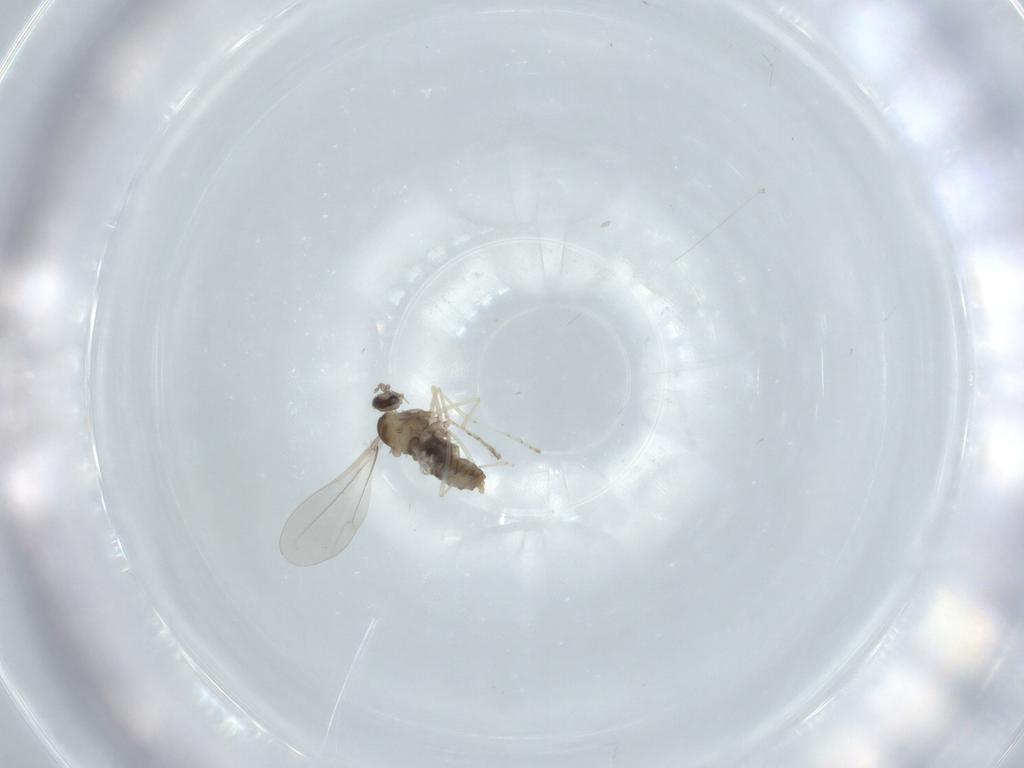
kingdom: Animalia
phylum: Arthropoda
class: Insecta
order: Diptera
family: Cecidomyiidae
